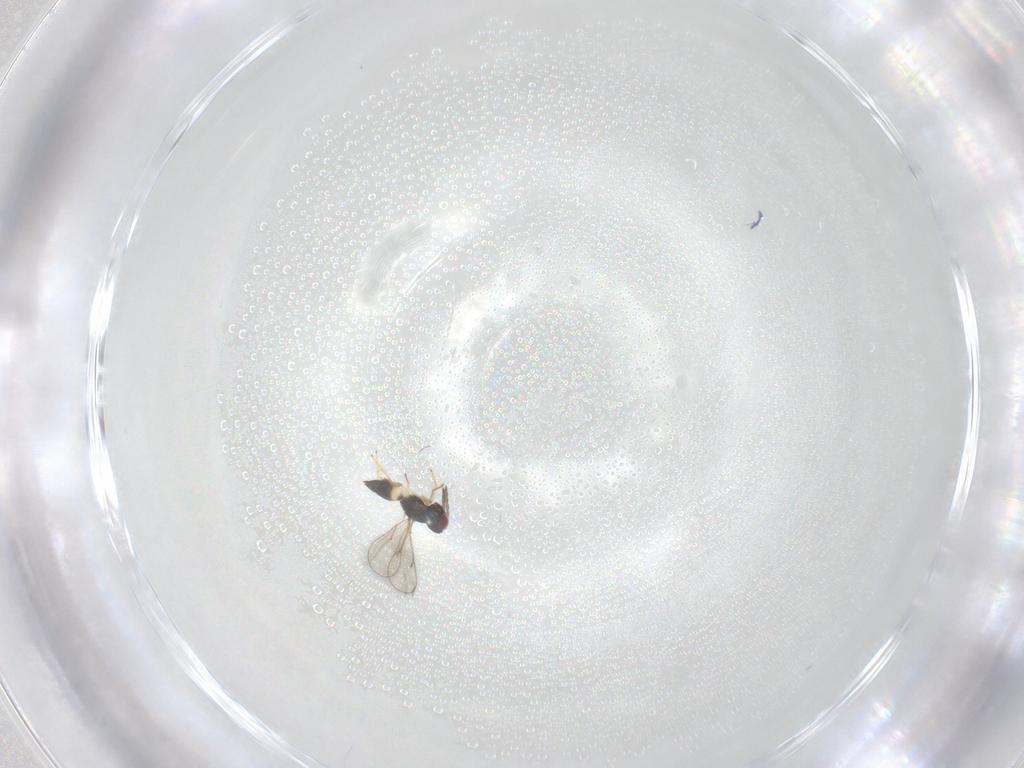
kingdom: Animalia
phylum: Arthropoda
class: Insecta
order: Hymenoptera
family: Eulophidae
